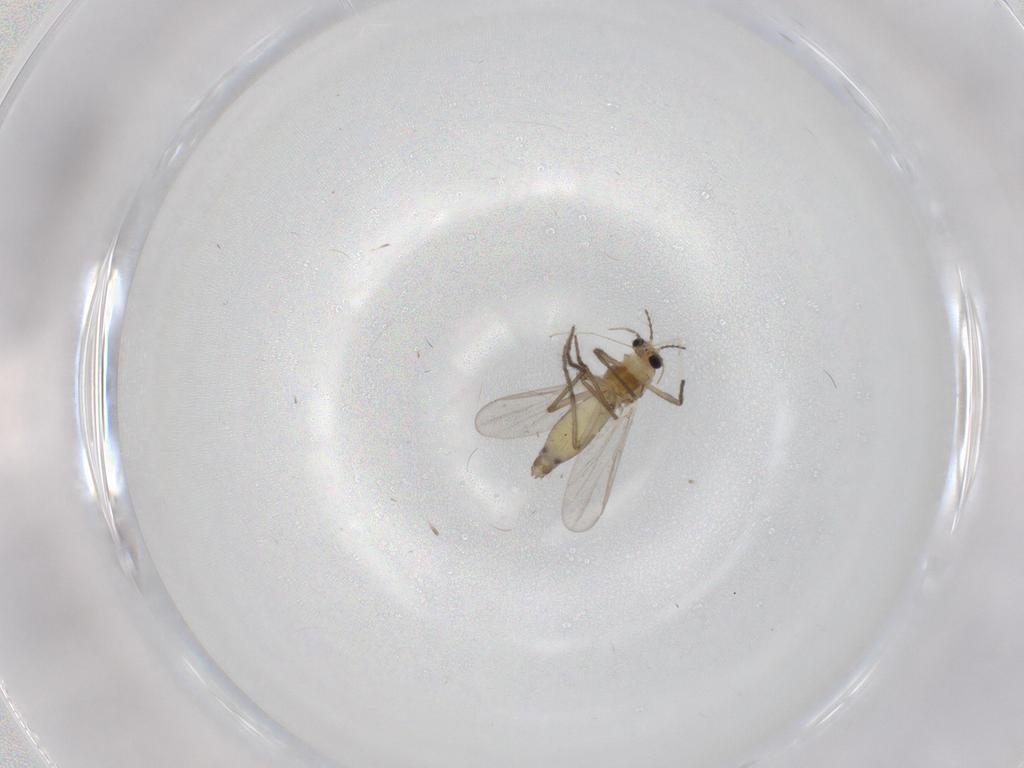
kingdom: Animalia
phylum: Arthropoda
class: Insecta
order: Diptera
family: Chironomidae
